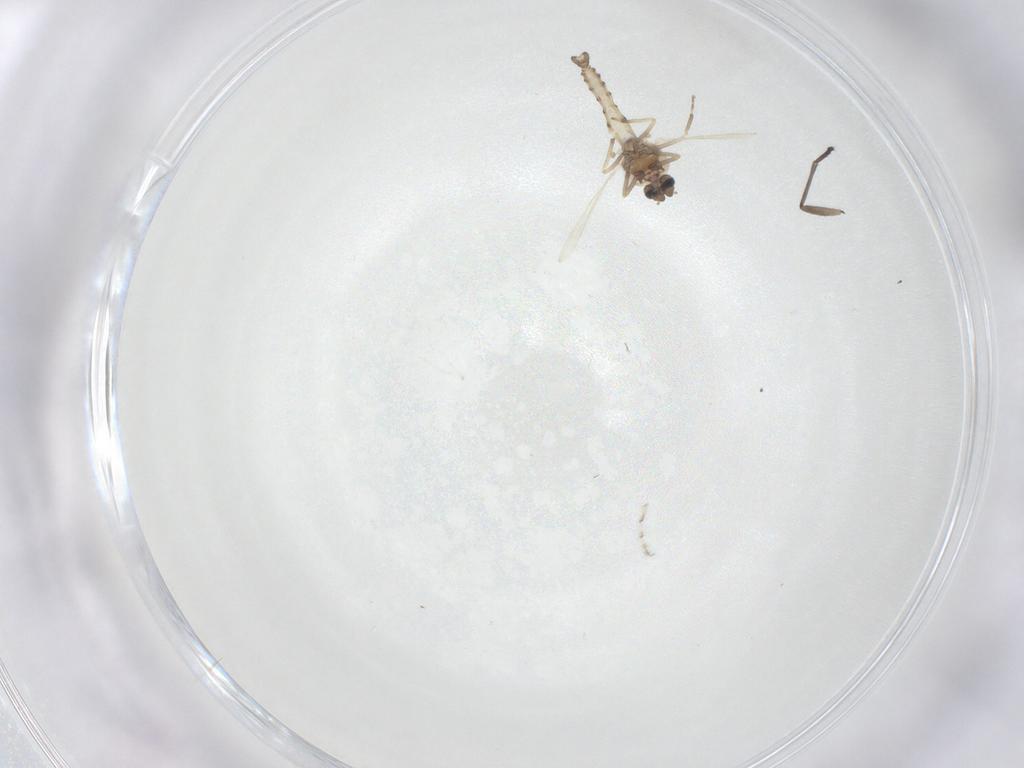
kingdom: Animalia
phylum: Arthropoda
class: Insecta
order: Diptera
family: Ceratopogonidae
